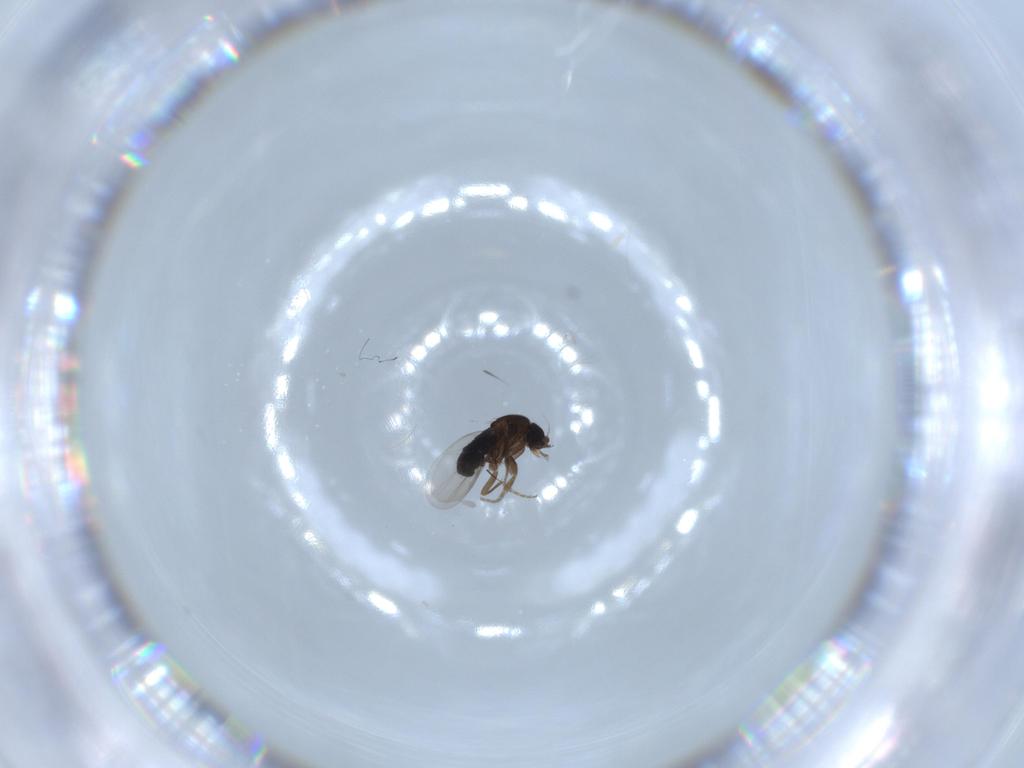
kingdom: Animalia
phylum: Arthropoda
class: Insecta
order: Diptera
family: Phoridae
